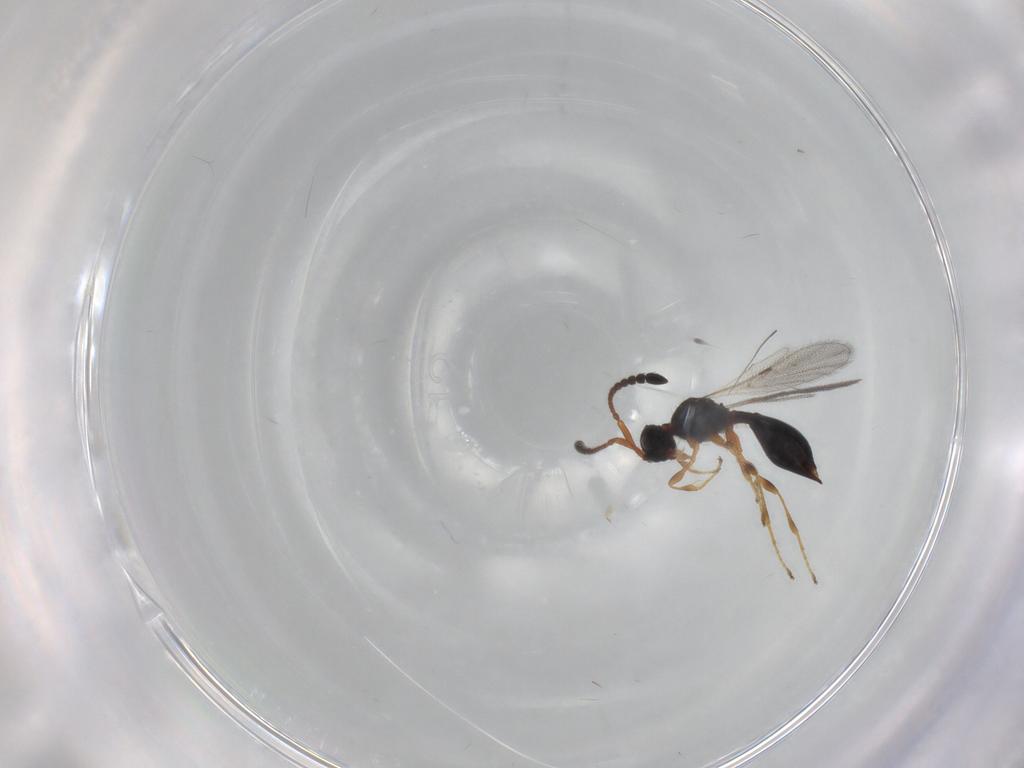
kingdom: Animalia
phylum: Arthropoda
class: Insecta
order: Hymenoptera
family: Diapriidae
